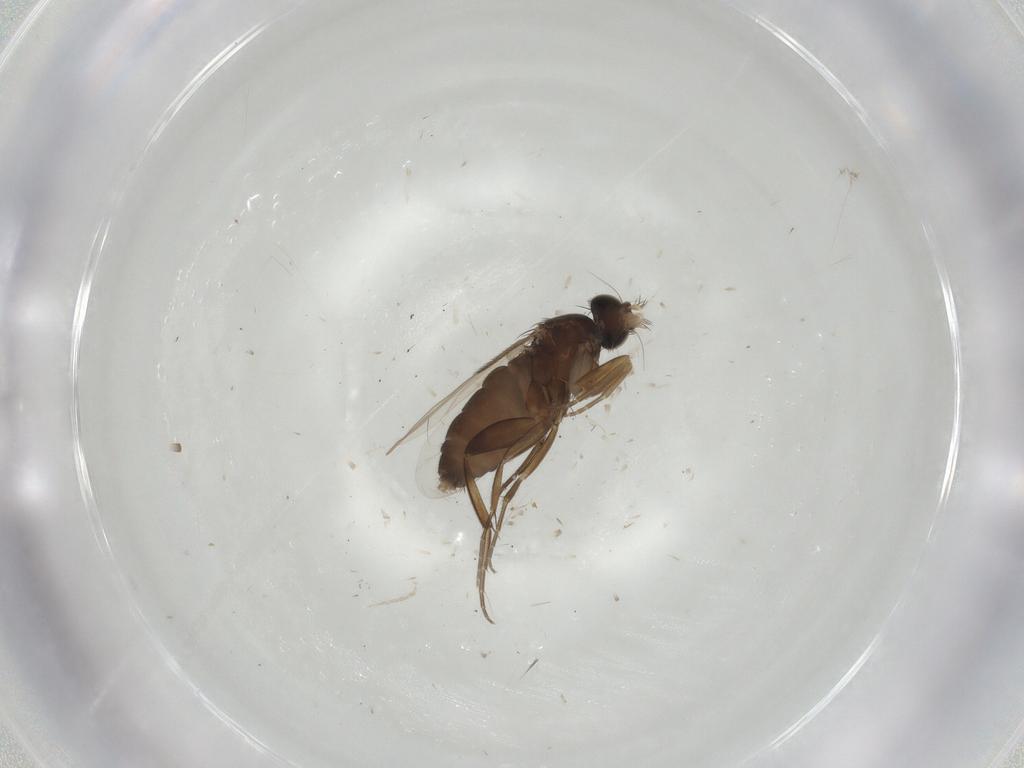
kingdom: Animalia
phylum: Arthropoda
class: Insecta
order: Diptera
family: Phoridae
